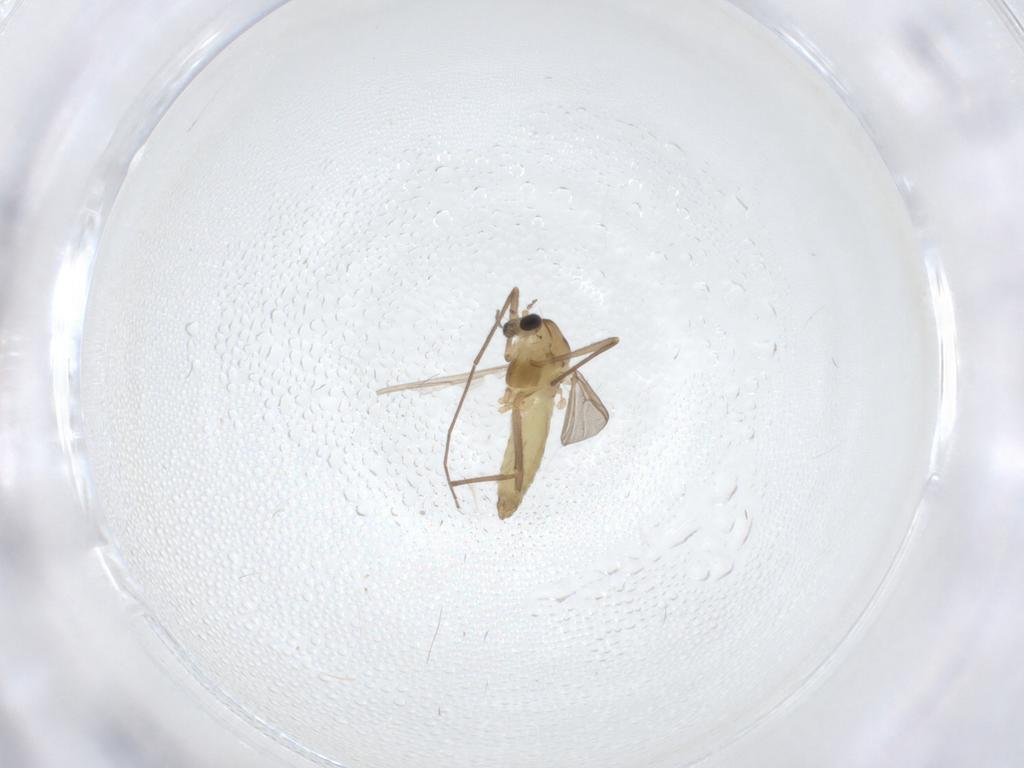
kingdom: Animalia
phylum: Arthropoda
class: Insecta
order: Diptera
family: Chironomidae
